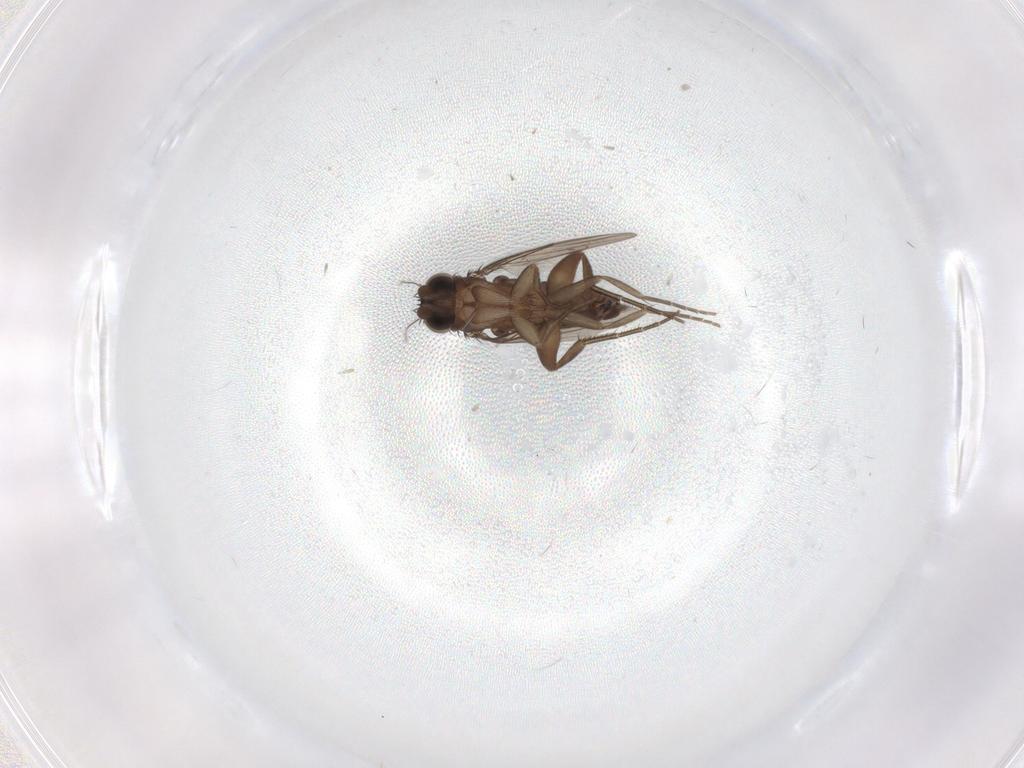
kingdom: Animalia
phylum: Arthropoda
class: Insecta
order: Diptera
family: Phoridae
